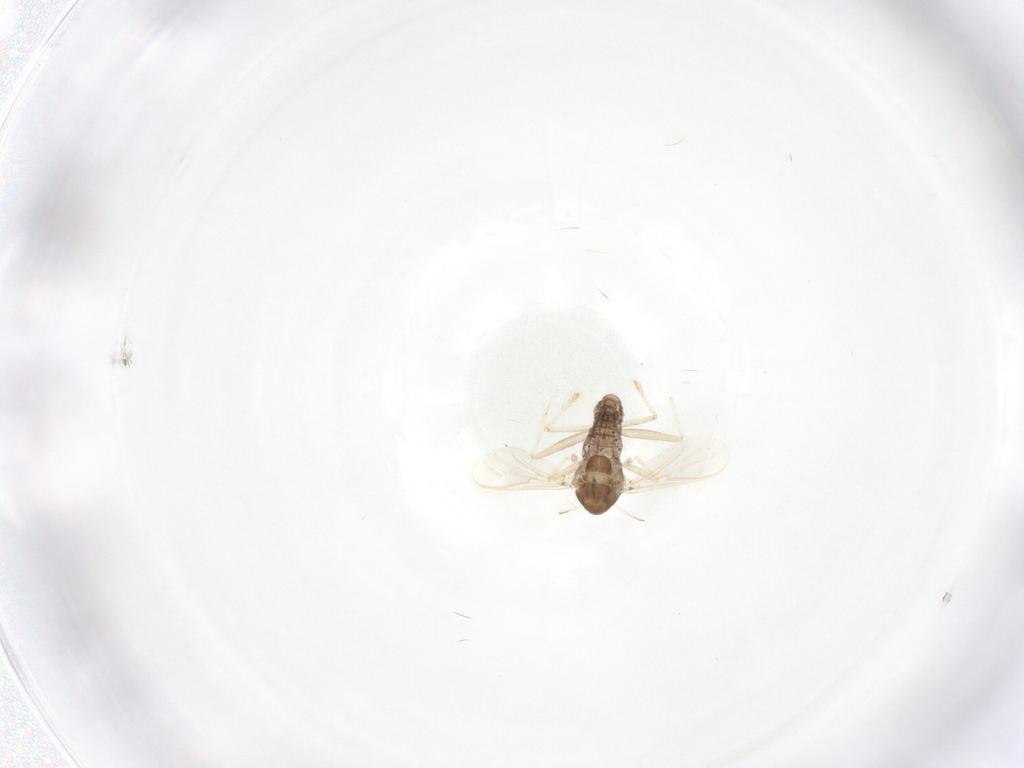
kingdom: Animalia
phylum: Arthropoda
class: Insecta
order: Diptera
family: Chironomidae
